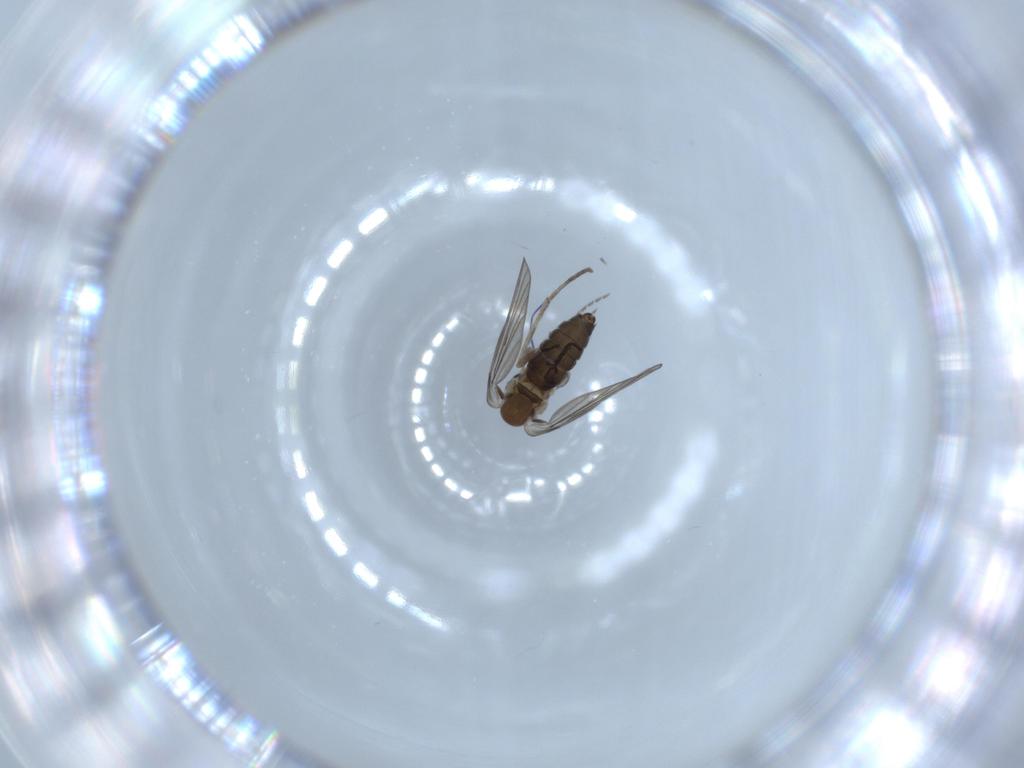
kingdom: Animalia
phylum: Arthropoda
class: Insecta
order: Diptera
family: Psychodidae
